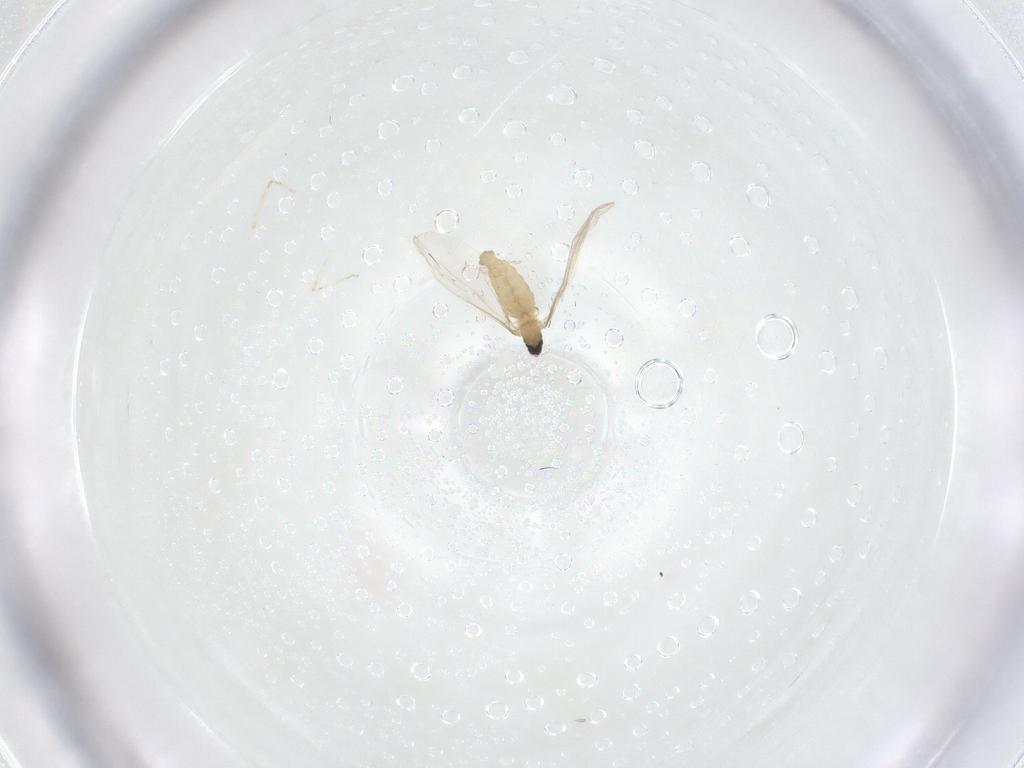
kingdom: Animalia
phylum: Arthropoda
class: Insecta
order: Diptera
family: Cecidomyiidae
